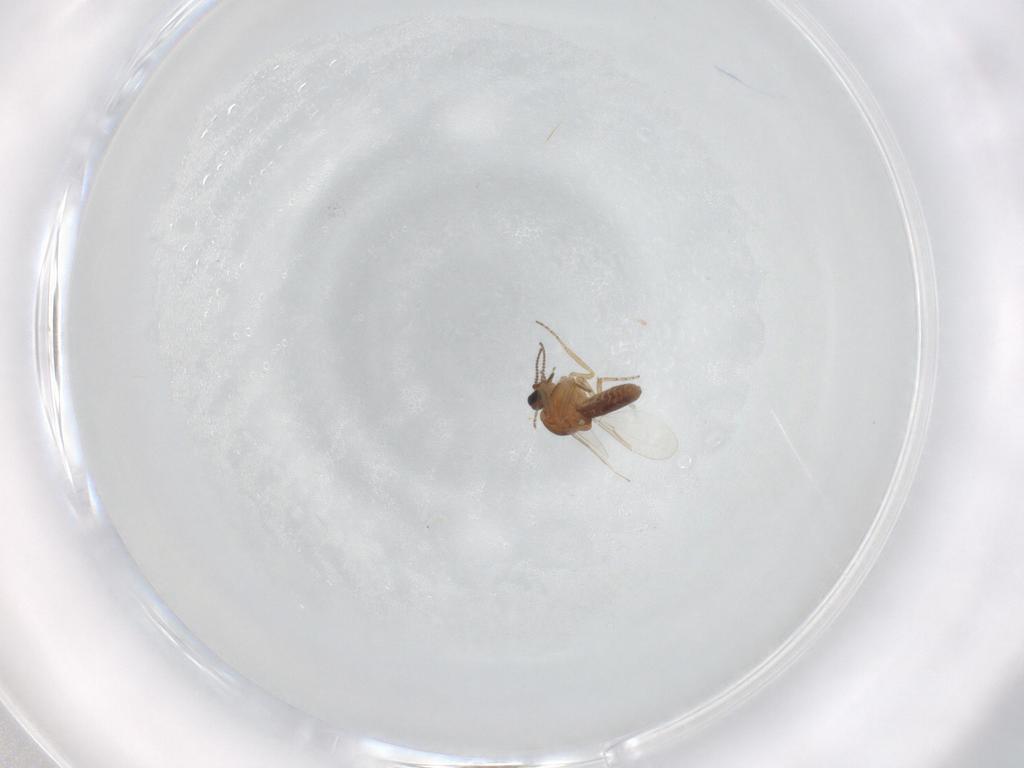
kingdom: Animalia
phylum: Arthropoda
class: Insecta
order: Diptera
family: Ceratopogonidae
